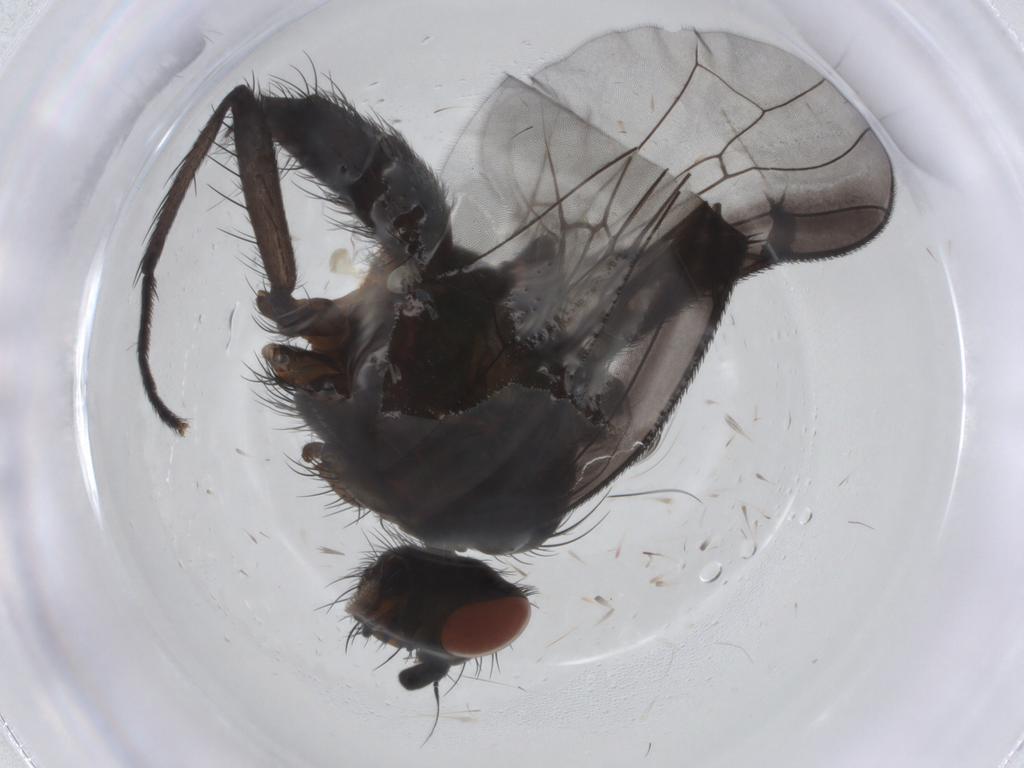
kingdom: Animalia
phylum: Arthropoda
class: Insecta
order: Diptera
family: Anthomyiidae
